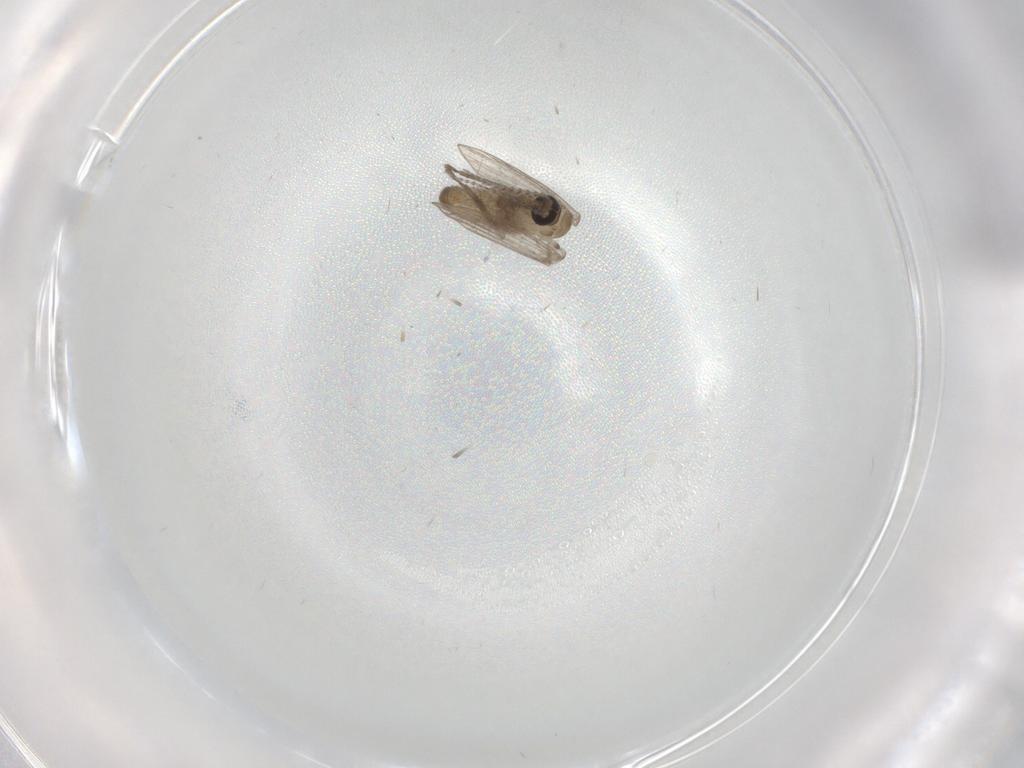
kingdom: Animalia
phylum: Arthropoda
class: Insecta
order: Diptera
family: Psychodidae
